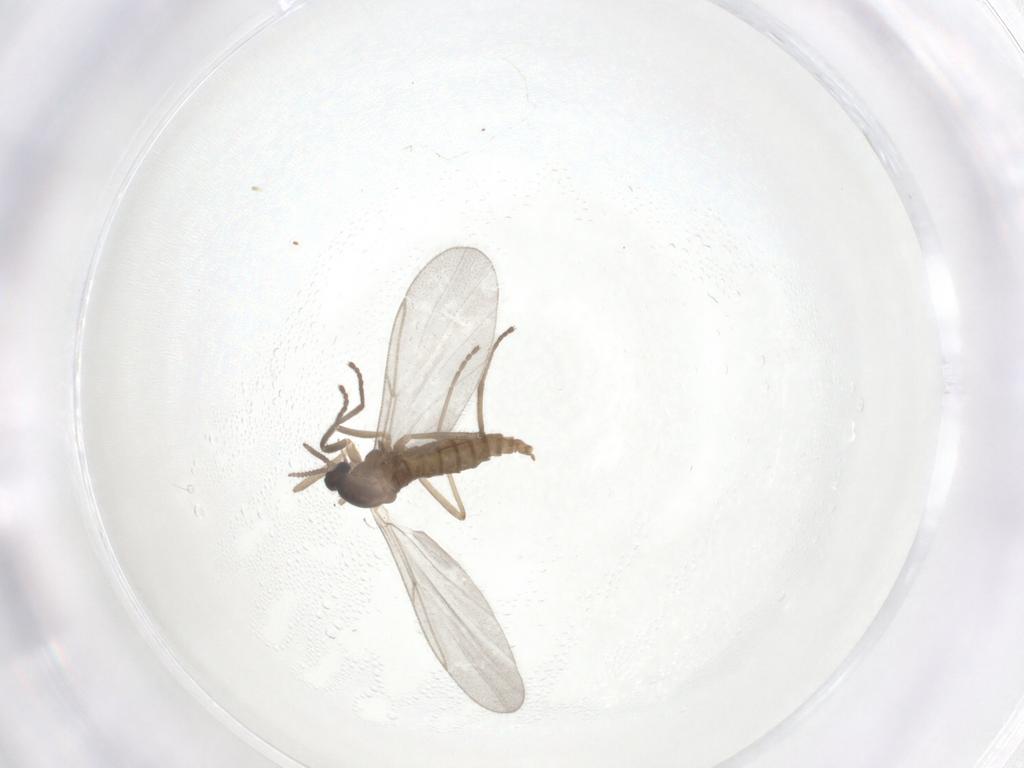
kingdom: Animalia
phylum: Arthropoda
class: Insecta
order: Diptera
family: Cecidomyiidae
